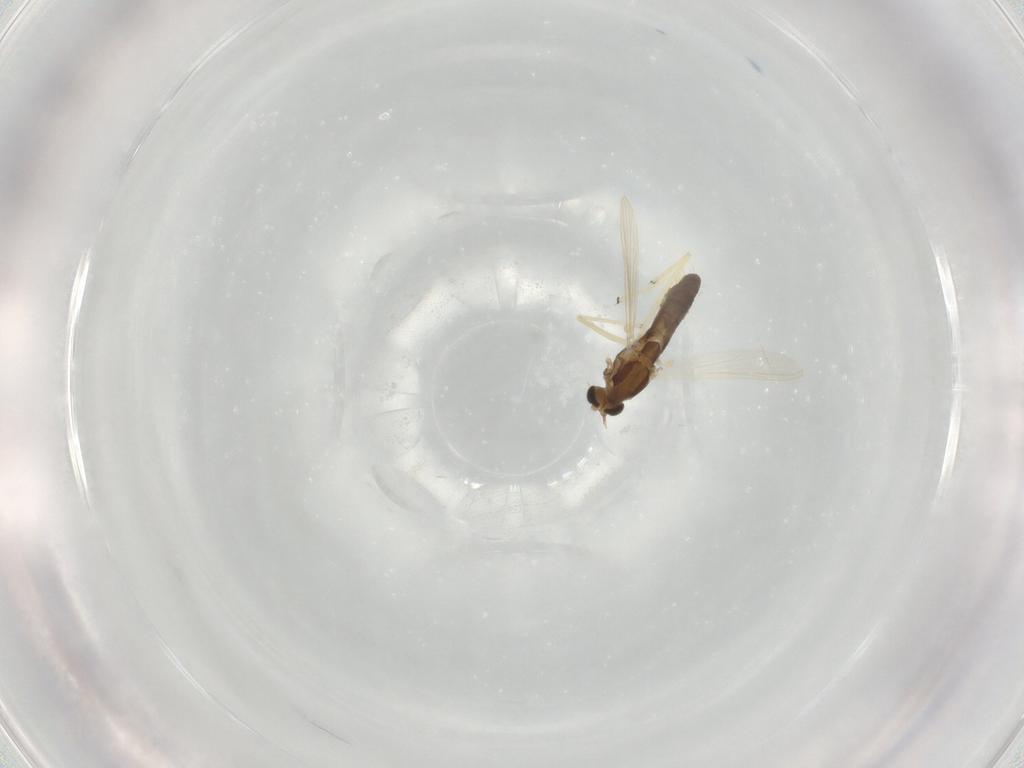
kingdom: Animalia
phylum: Arthropoda
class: Insecta
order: Diptera
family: Chironomidae
